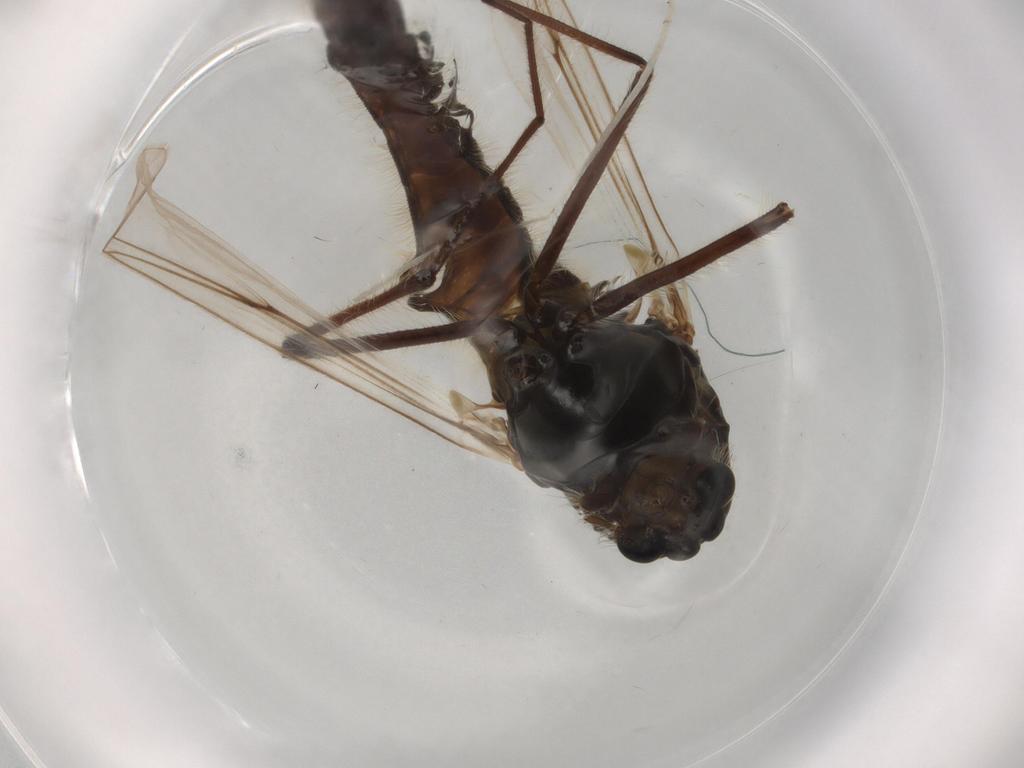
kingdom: Animalia
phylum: Arthropoda
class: Insecta
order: Diptera
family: Chironomidae
